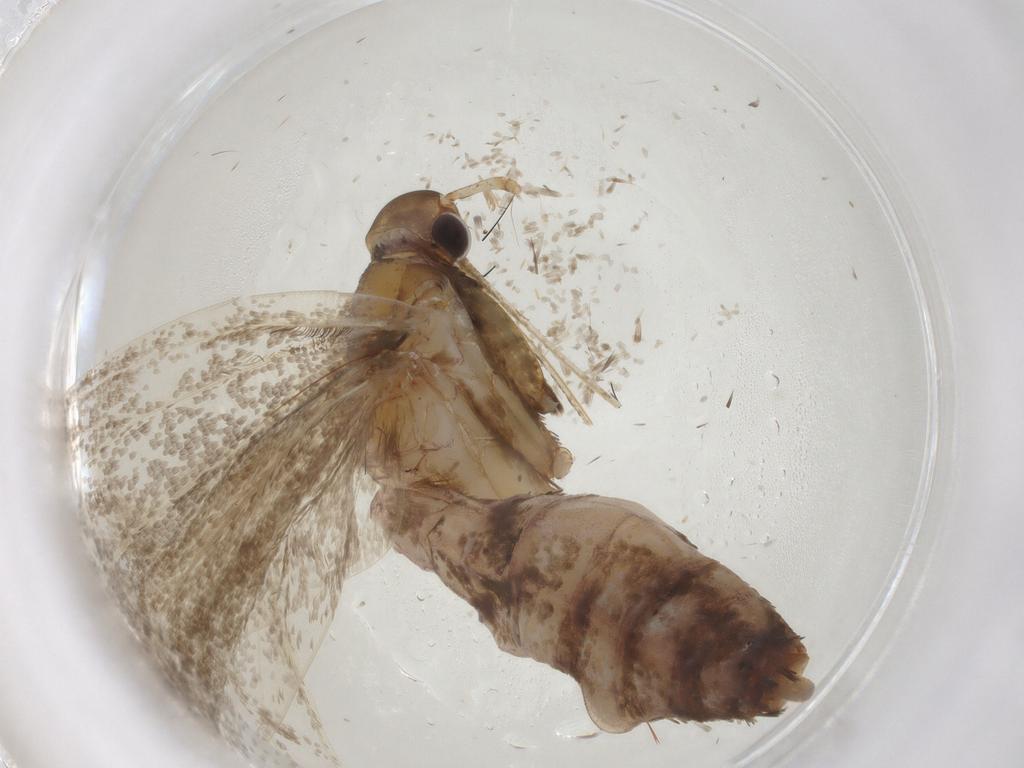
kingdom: Animalia
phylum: Arthropoda
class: Insecta
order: Lepidoptera
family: Gelechiidae
